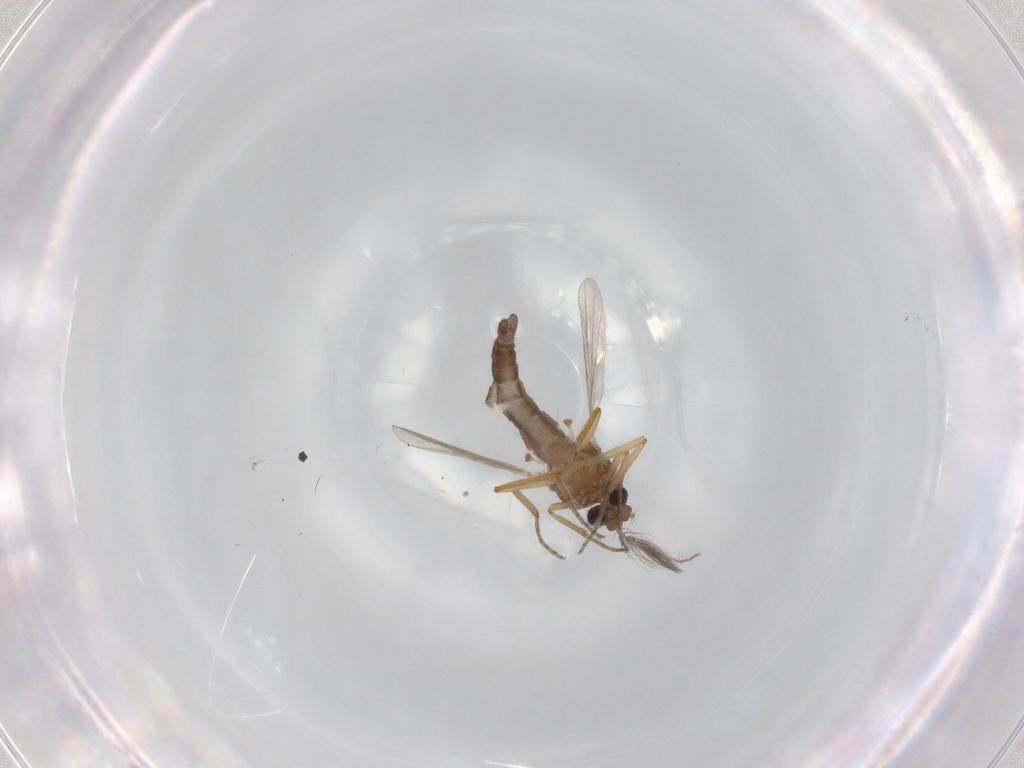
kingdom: Animalia
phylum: Arthropoda
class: Insecta
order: Diptera
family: Ceratopogonidae
